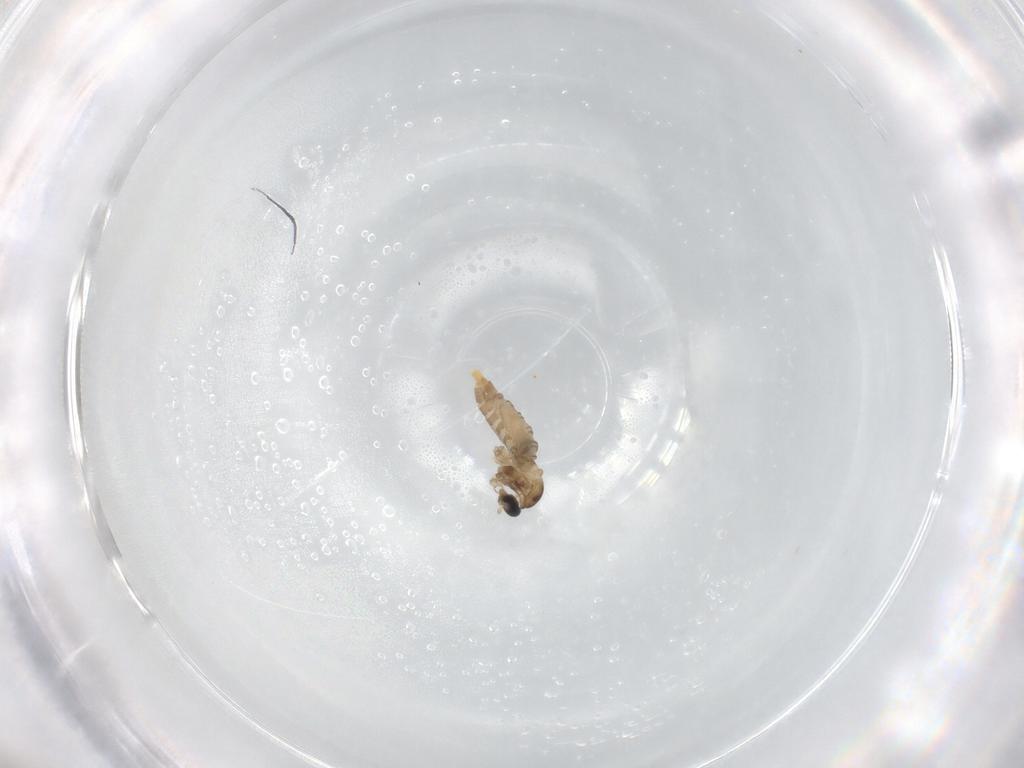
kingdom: Animalia
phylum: Arthropoda
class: Insecta
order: Diptera
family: Cecidomyiidae
